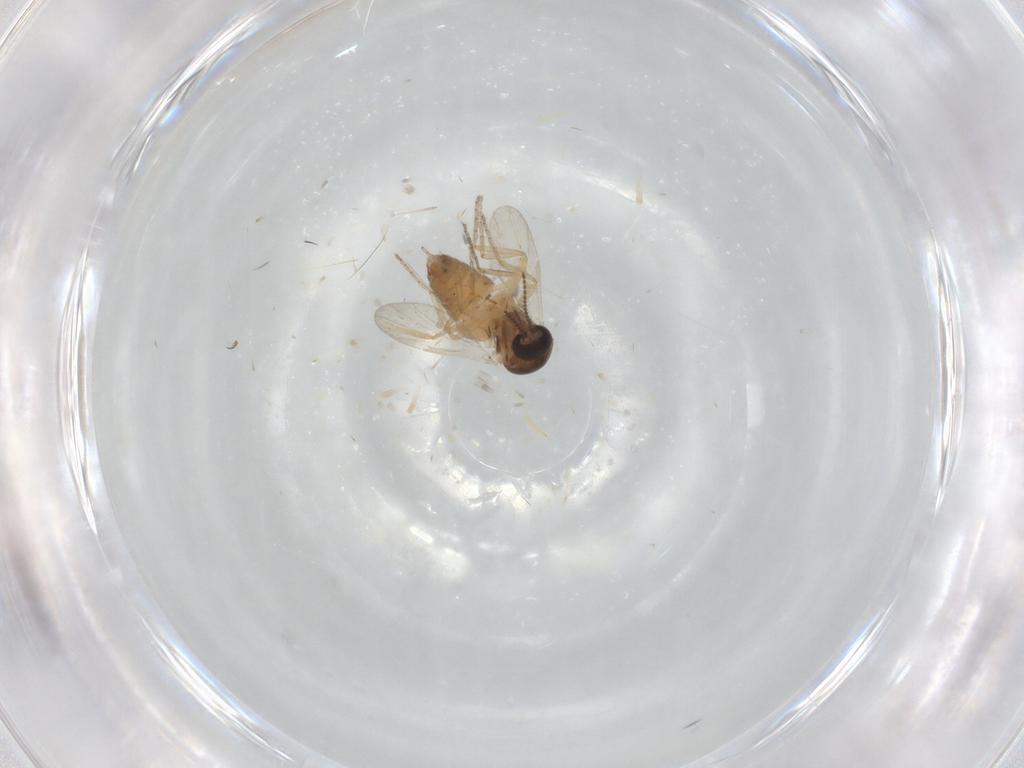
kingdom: Animalia
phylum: Arthropoda
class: Insecta
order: Diptera
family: Ceratopogonidae
